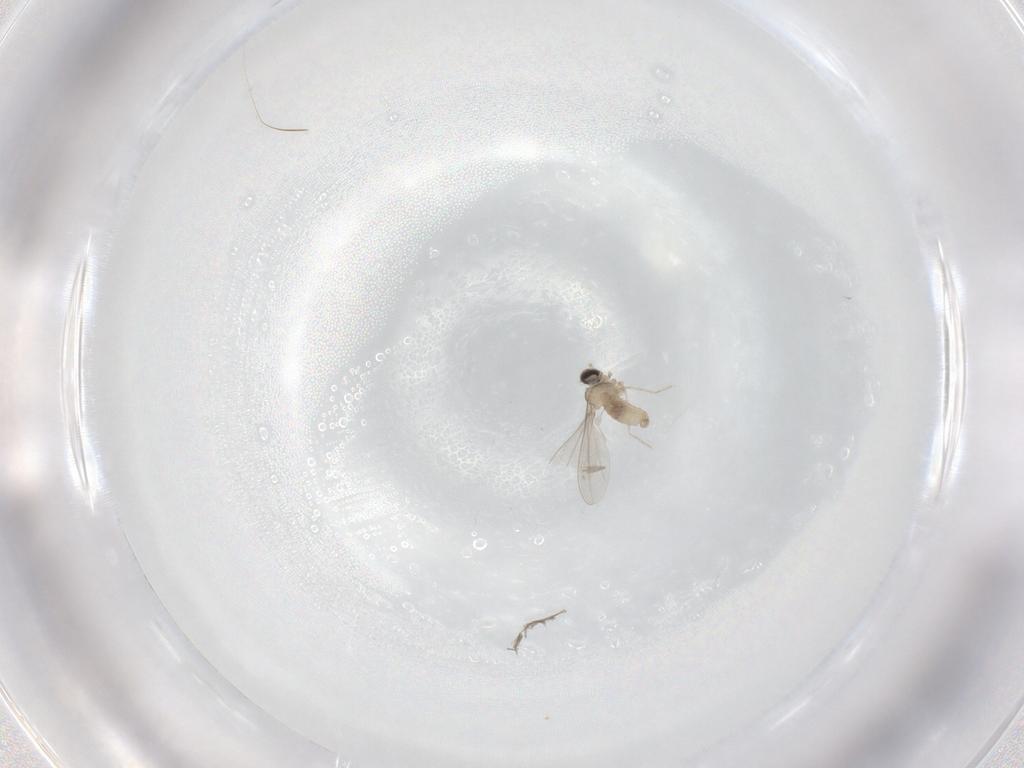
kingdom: Animalia
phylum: Arthropoda
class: Insecta
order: Diptera
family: Cecidomyiidae
